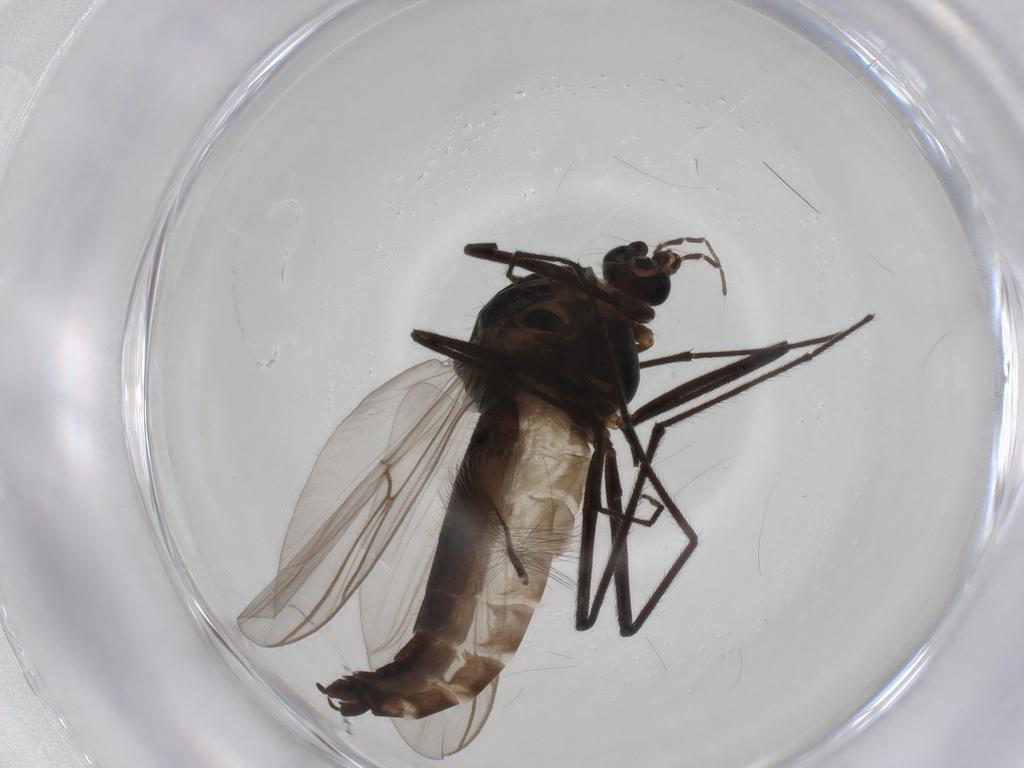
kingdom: Animalia
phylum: Arthropoda
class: Insecta
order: Diptera
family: Chironomidae
